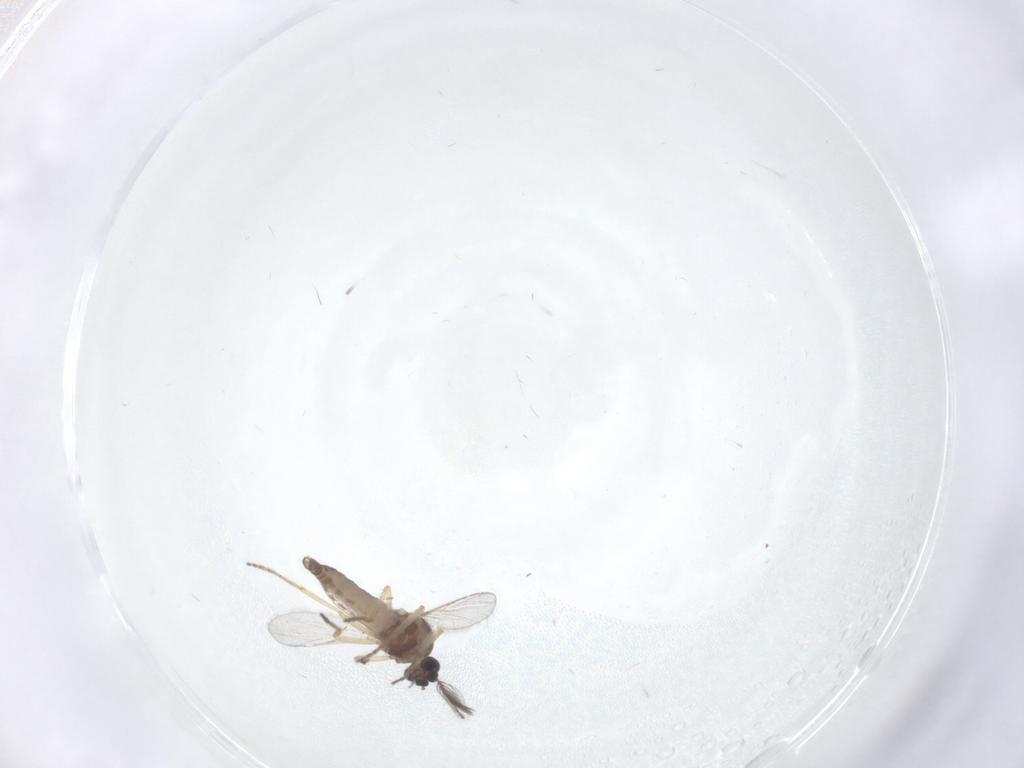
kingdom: Animalia
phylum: Arthropoda
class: Insecta
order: Diptera
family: Ceratopogonidae
